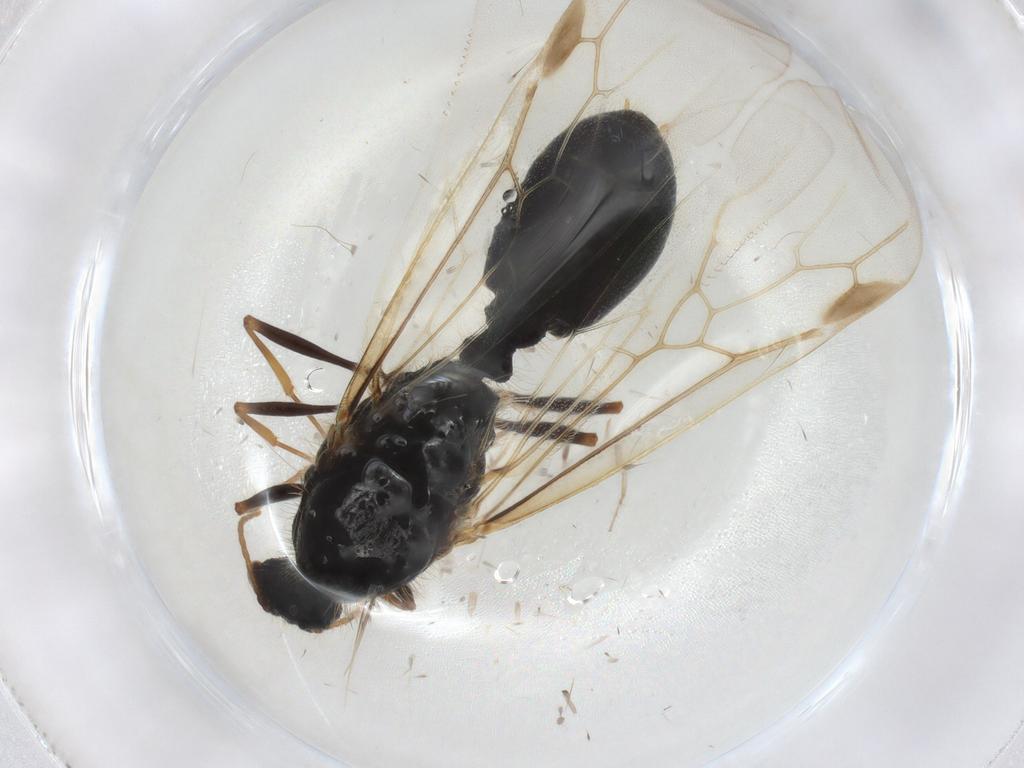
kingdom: Animalia
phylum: Arthropoda
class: Insecta
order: Hymenoptera
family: Formicidae
